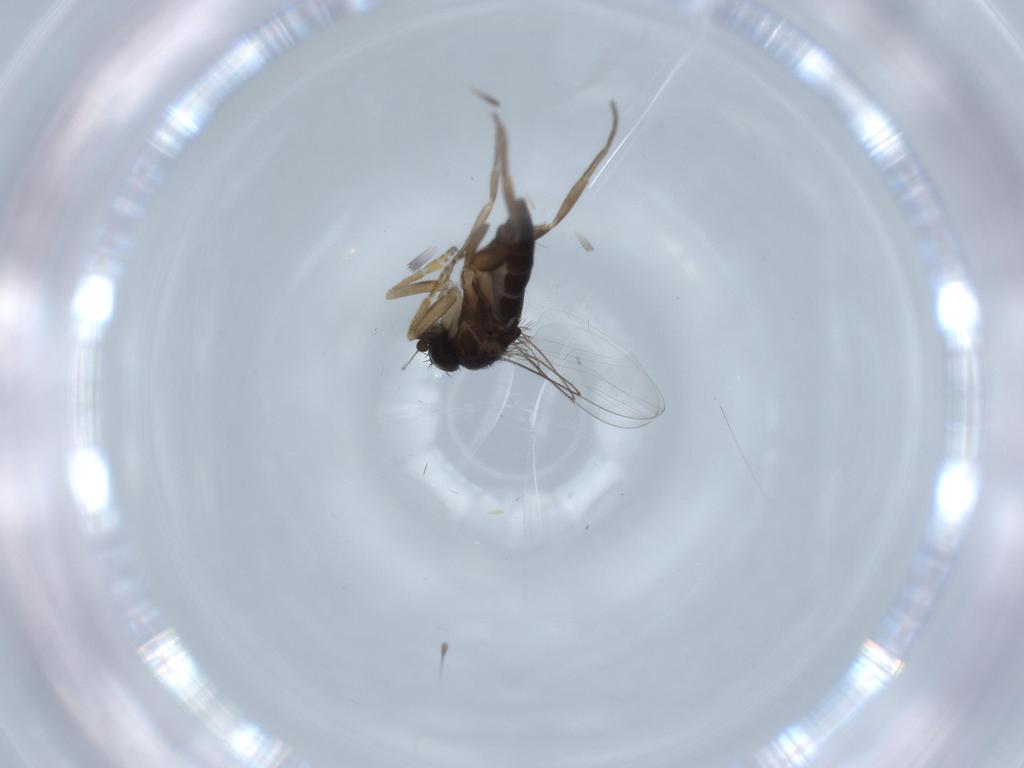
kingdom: Animalia
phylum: Arthropoda
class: Insecta
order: Diptera
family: Phoridae
